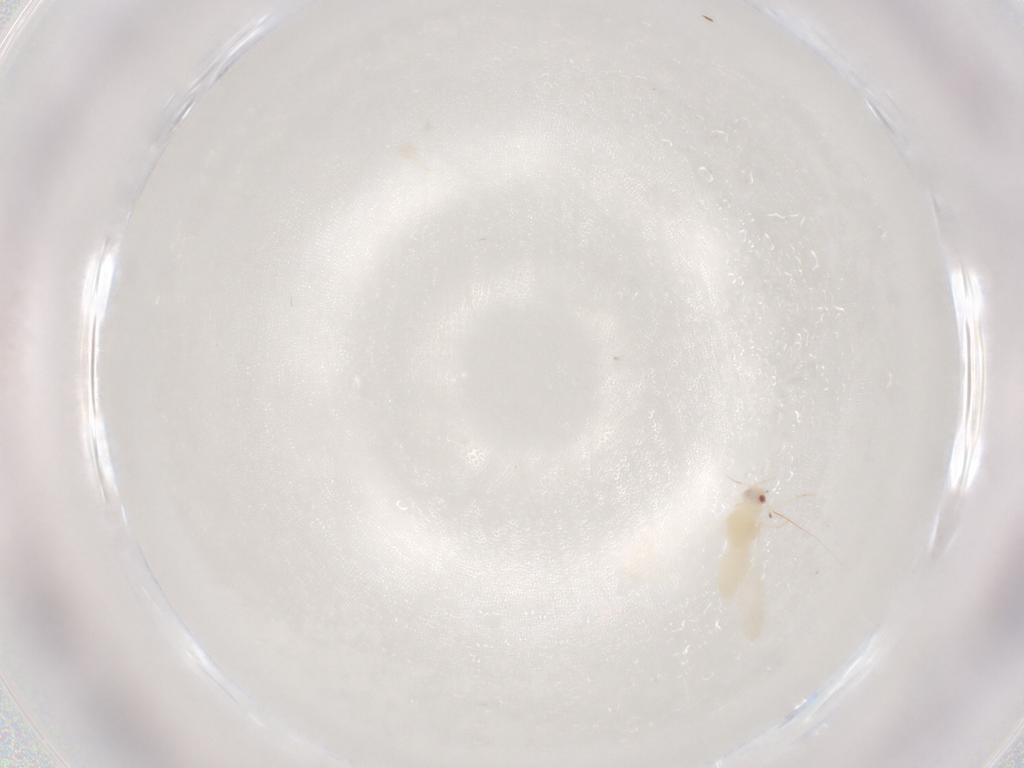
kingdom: Animalia
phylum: Arthropoda
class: Insecta
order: Hemiptera
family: Aleyrodidae
